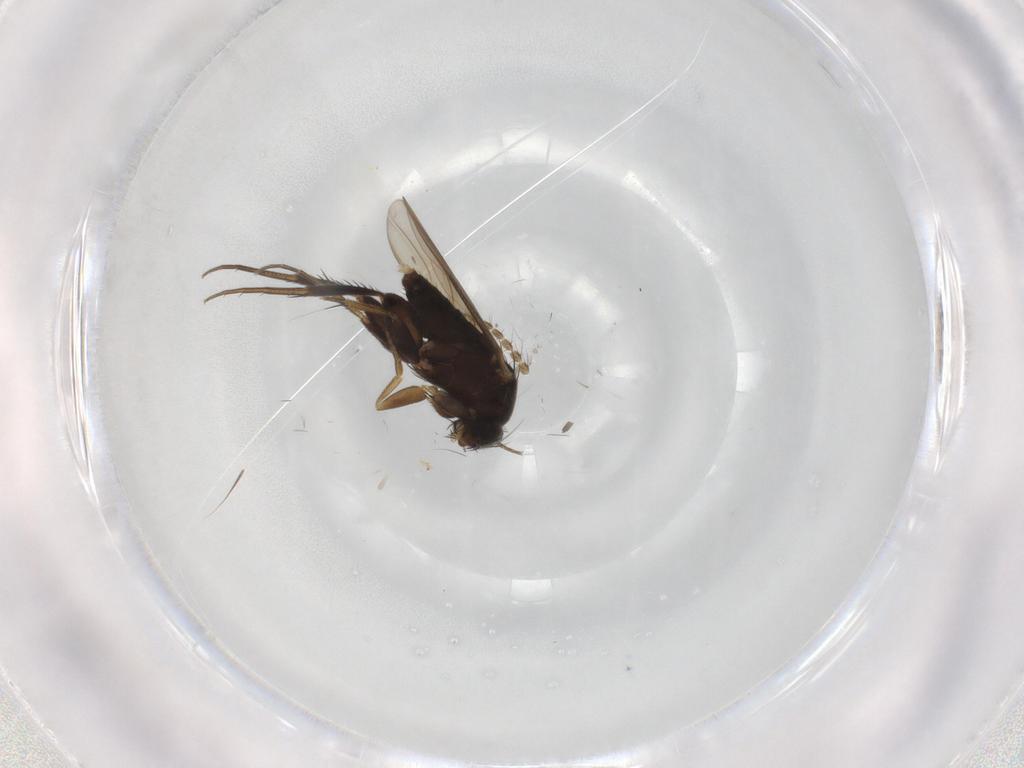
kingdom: Animalia
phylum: Arthropoda
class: Insecta
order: Diptera
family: Phoridae
